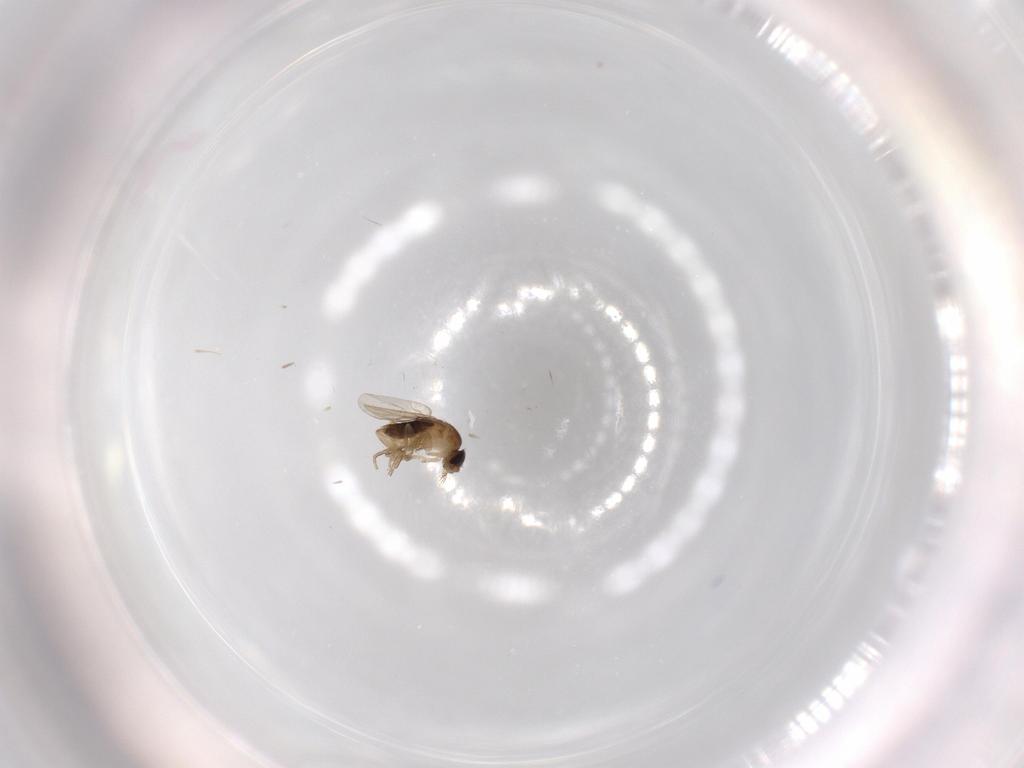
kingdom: Animalia
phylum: Arthropoda
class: Insecta
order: Diptera
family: Phoridae
